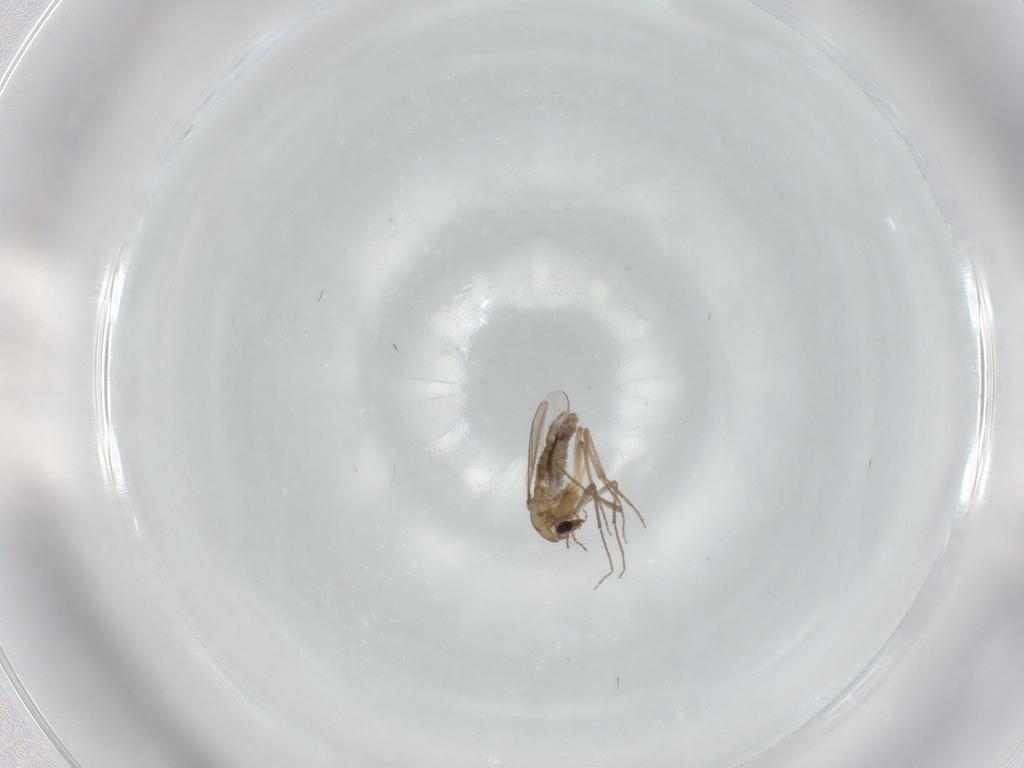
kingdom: Animalia
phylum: Arthropoda
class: Insecta
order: Diptera
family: Chironomidae
